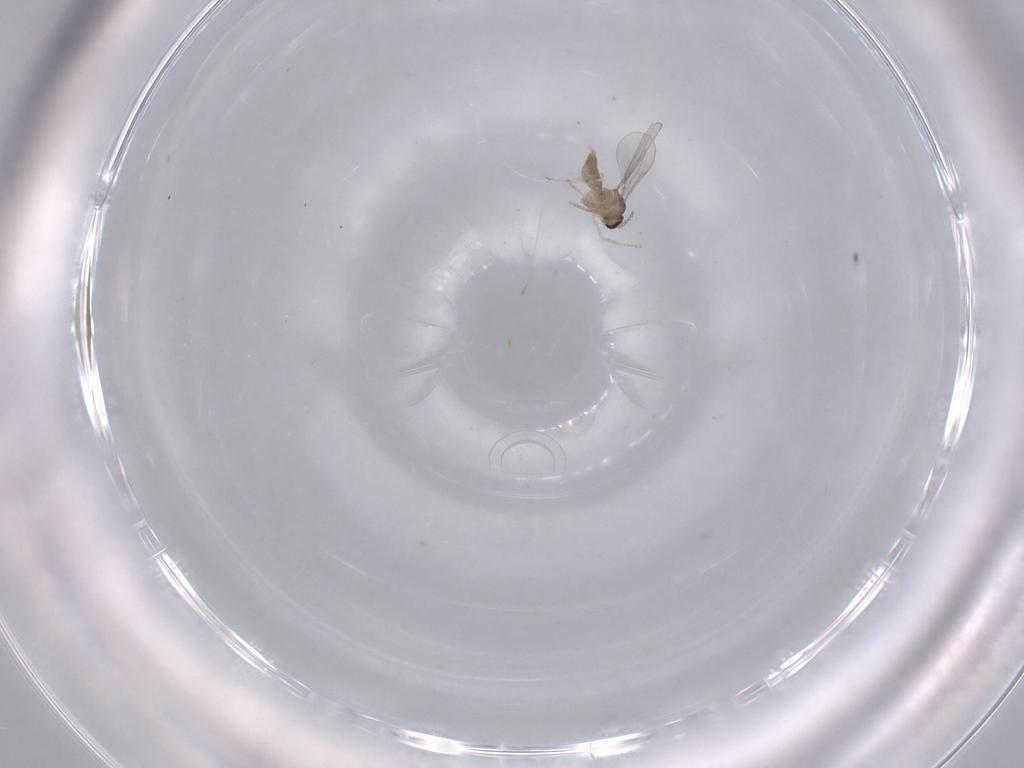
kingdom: Animalia
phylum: Arthropoda
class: Insecta
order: Diptera
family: Cecidomyiidae
